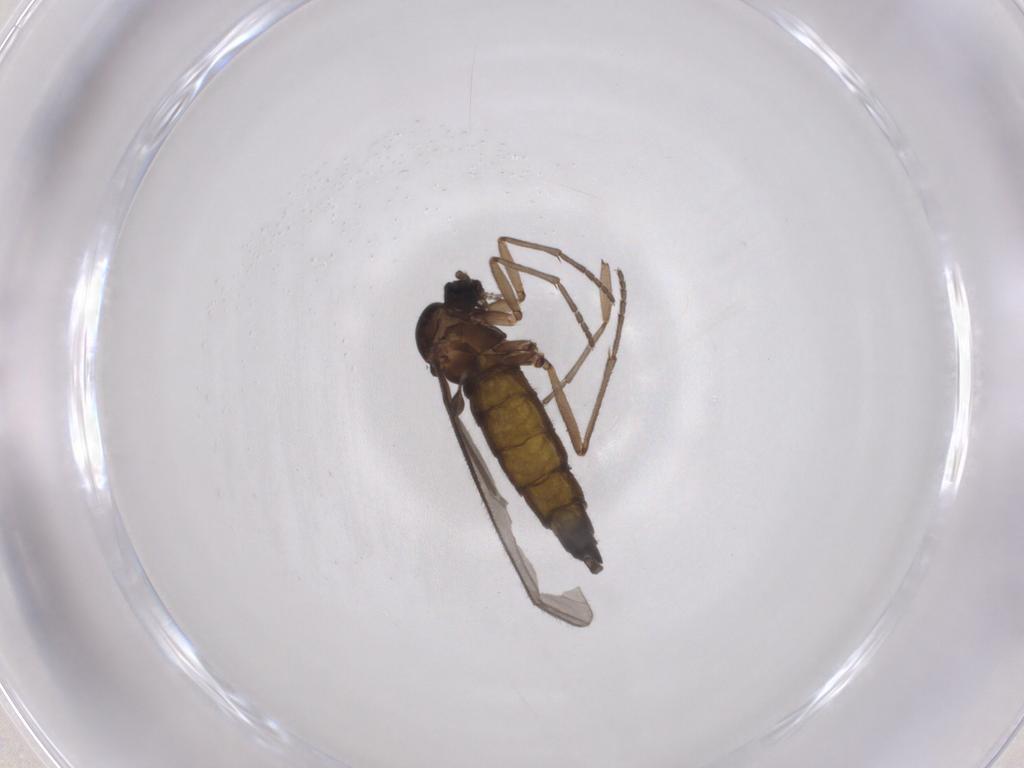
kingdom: Animalia
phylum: Arthropoda
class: Insecta
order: Diptera
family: Sciaridae
